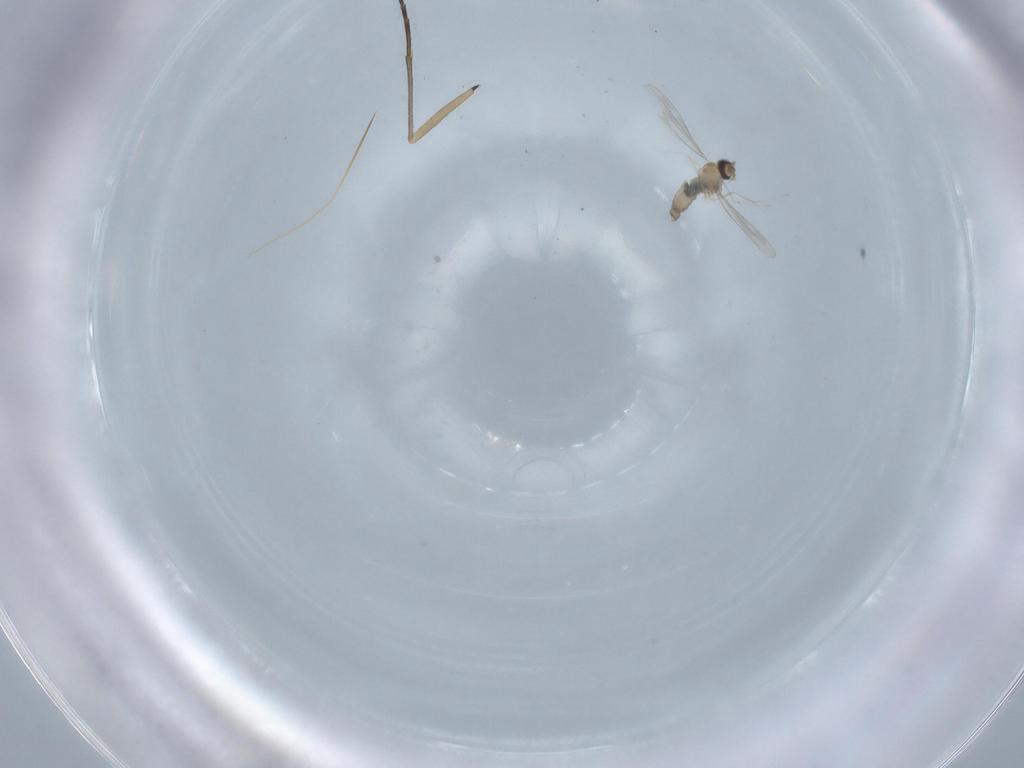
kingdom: Animalia
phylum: Arthropoda
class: Insecta
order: Diptera
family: Cecidomyiidae
